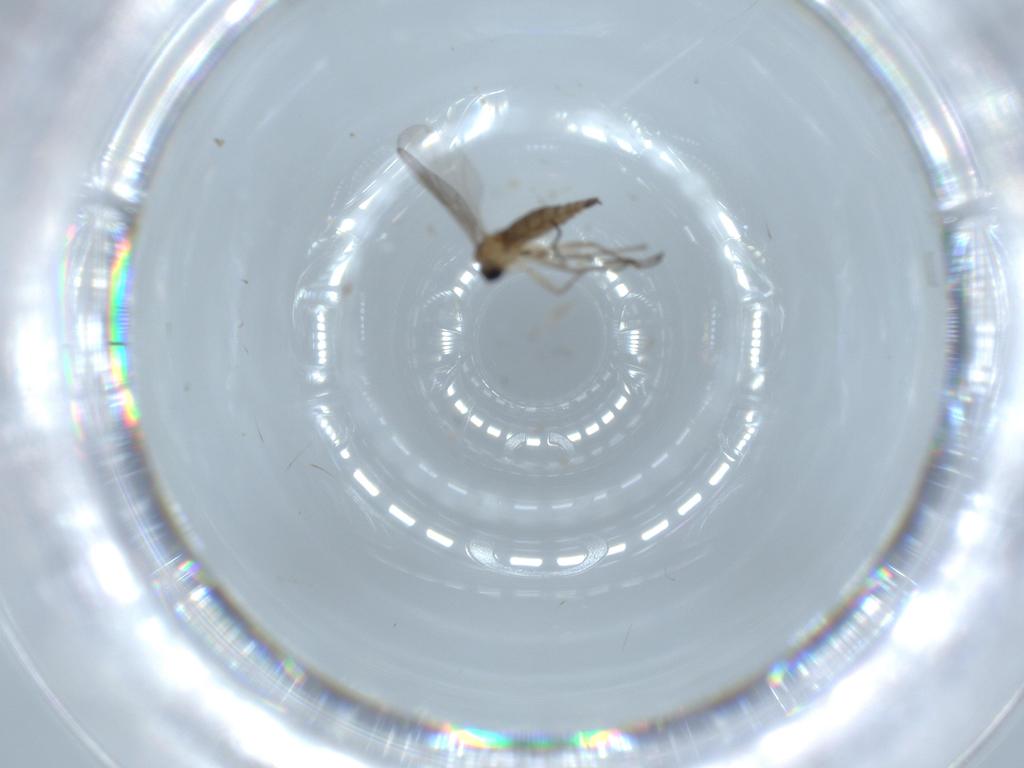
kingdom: Animalia
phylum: Arthropoda
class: Insecta
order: Diptera
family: Sciaridae
